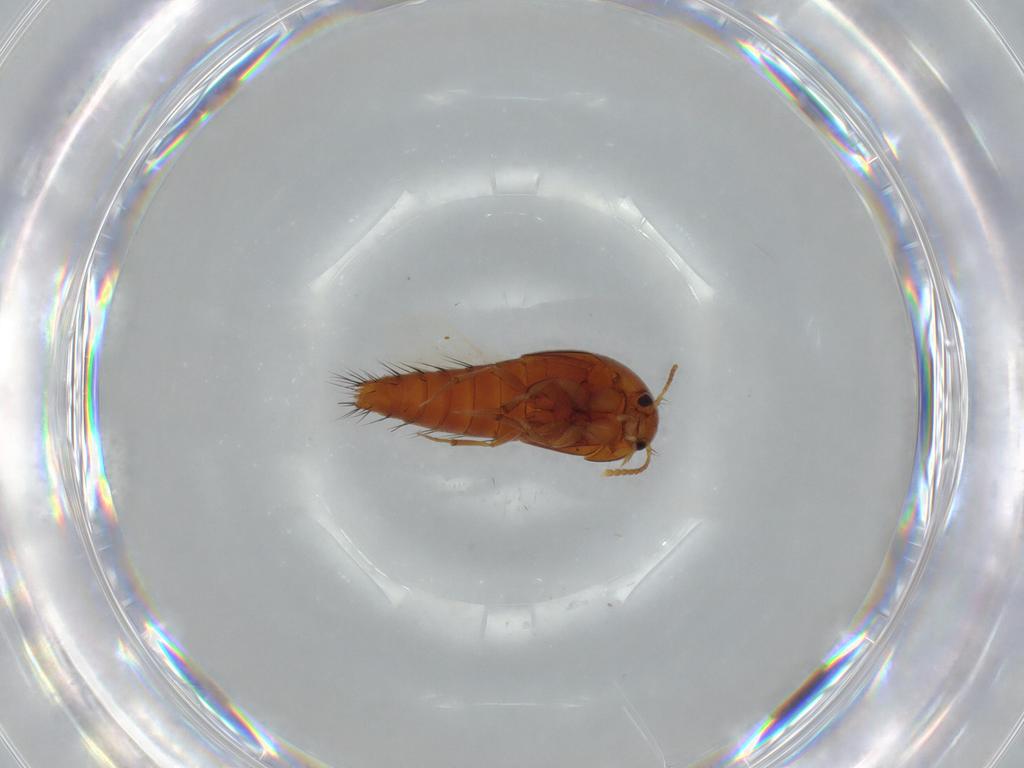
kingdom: Animalia
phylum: Arthropoda
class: Insecta
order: Coleoptera
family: Staphylinidae
